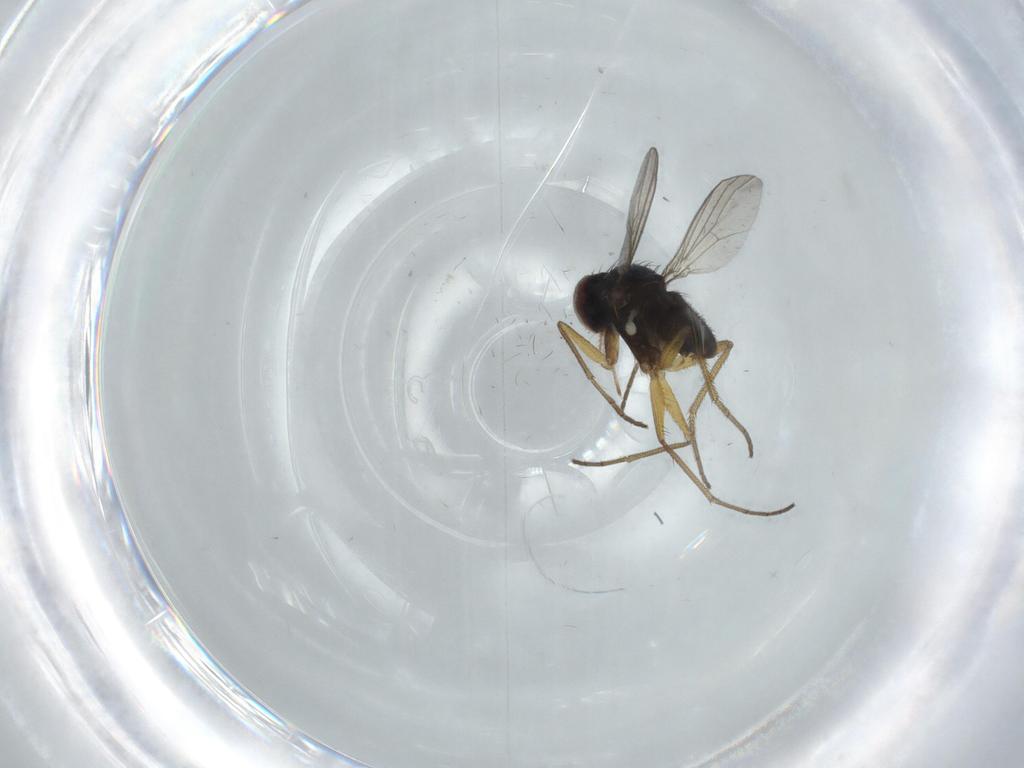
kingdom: Animalia
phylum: Arthropoda
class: Insecta
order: Diptera
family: Dolichopodidae
